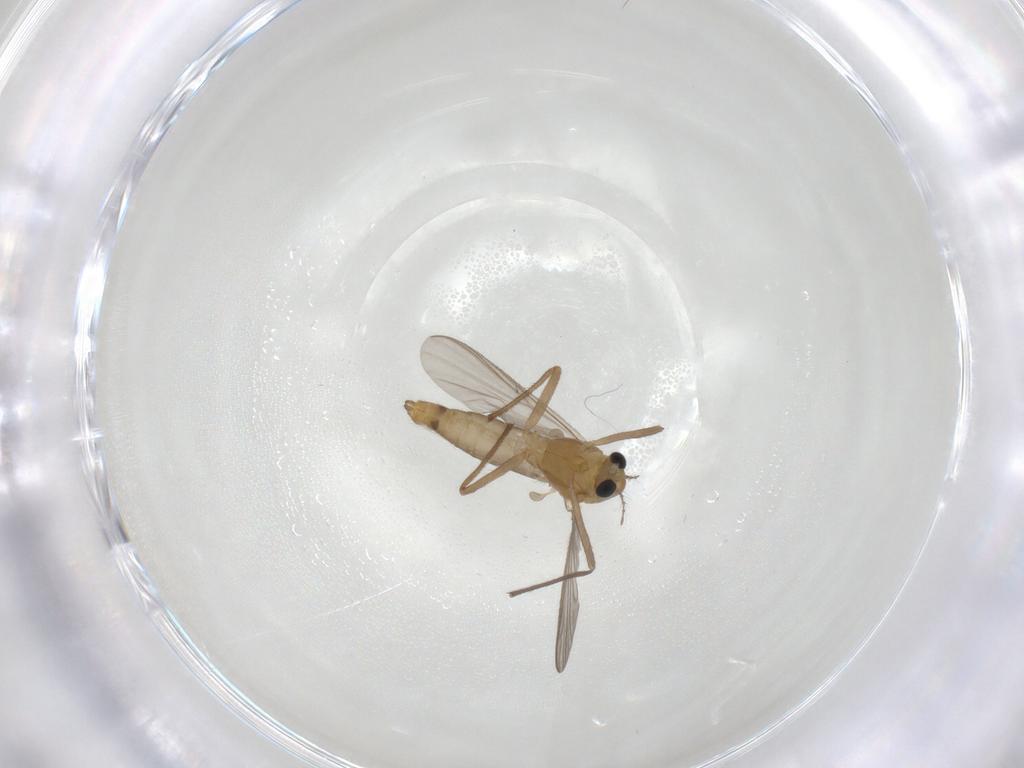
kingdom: Animalia
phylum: Arthropoda
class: Insecta
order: Diptera
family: Chironomidae
